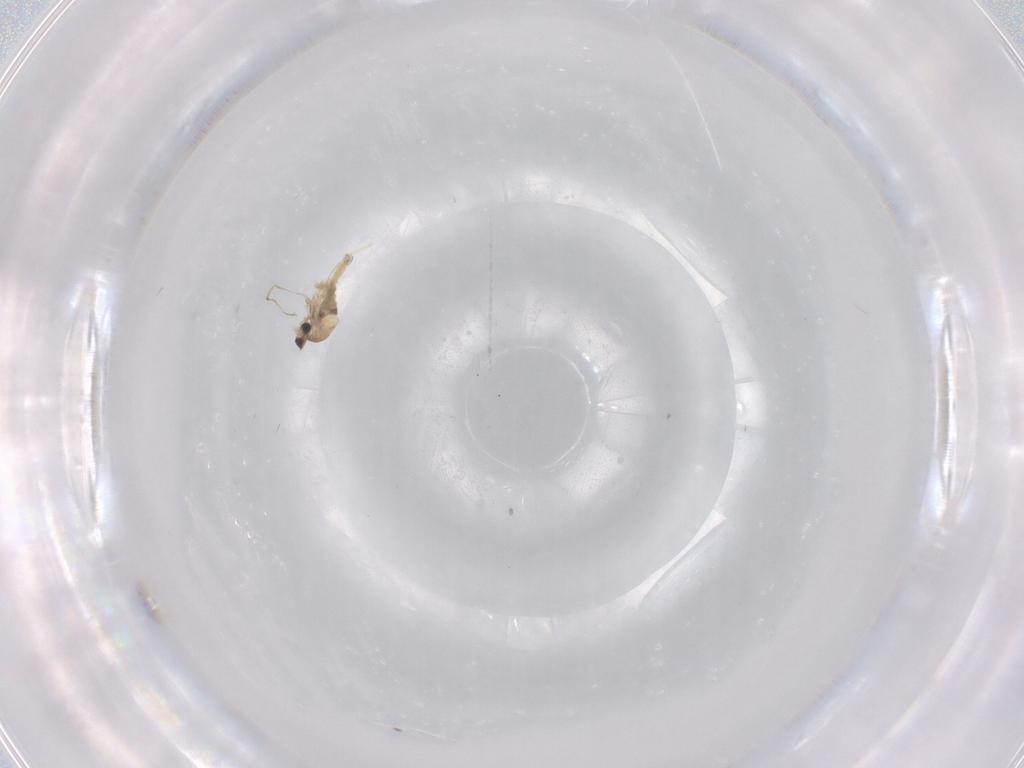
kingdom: Animalia
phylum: Arthropoda
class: Insecta
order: Diptera
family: Cecidomyiidae
